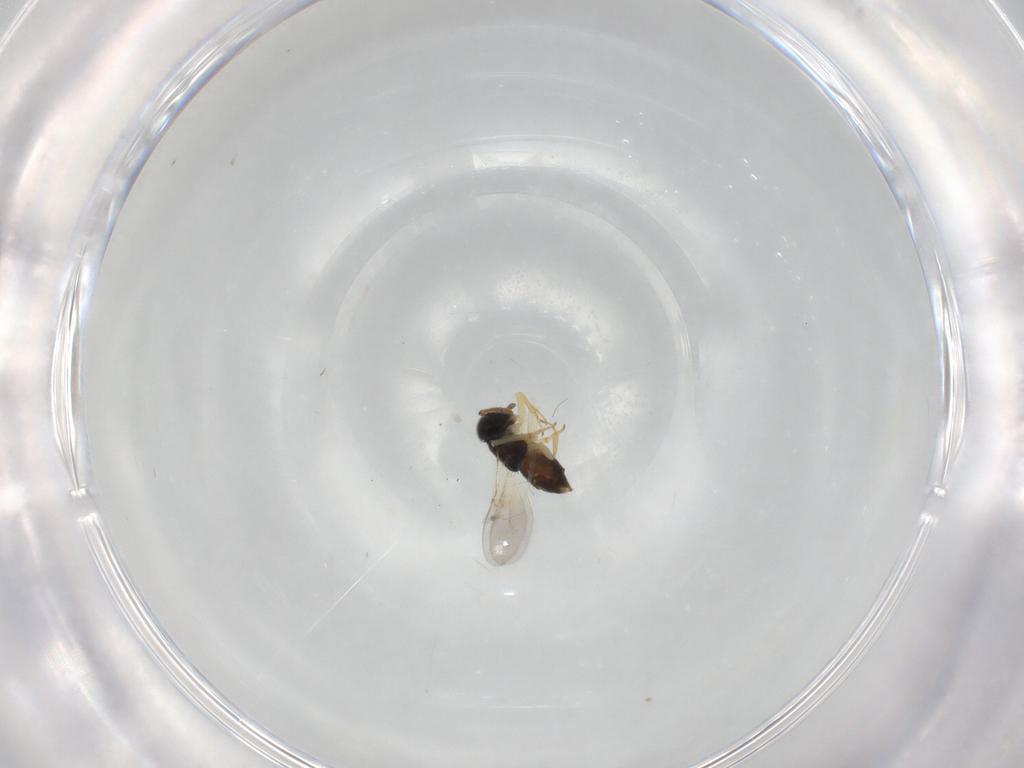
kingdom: Animalia
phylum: Arthropoda
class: Insecta
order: Hymenoptera
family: Eurytomidae
